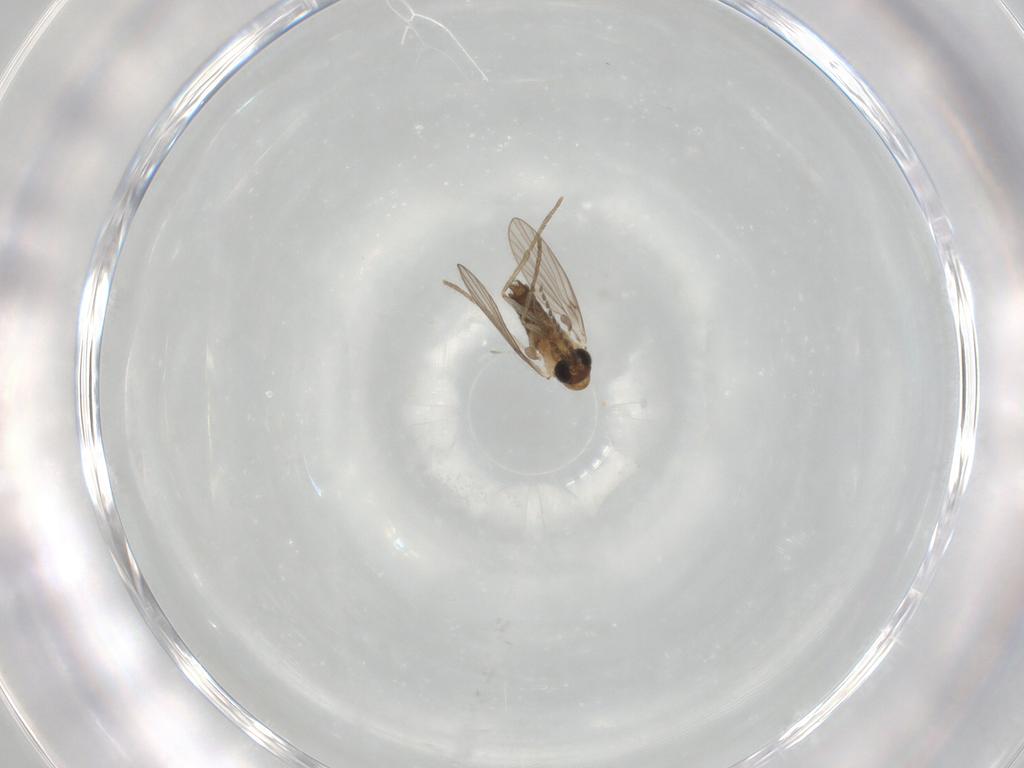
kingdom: Animalia
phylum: Arthropoda
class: Insecta
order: Diptera
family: Psychodidae
